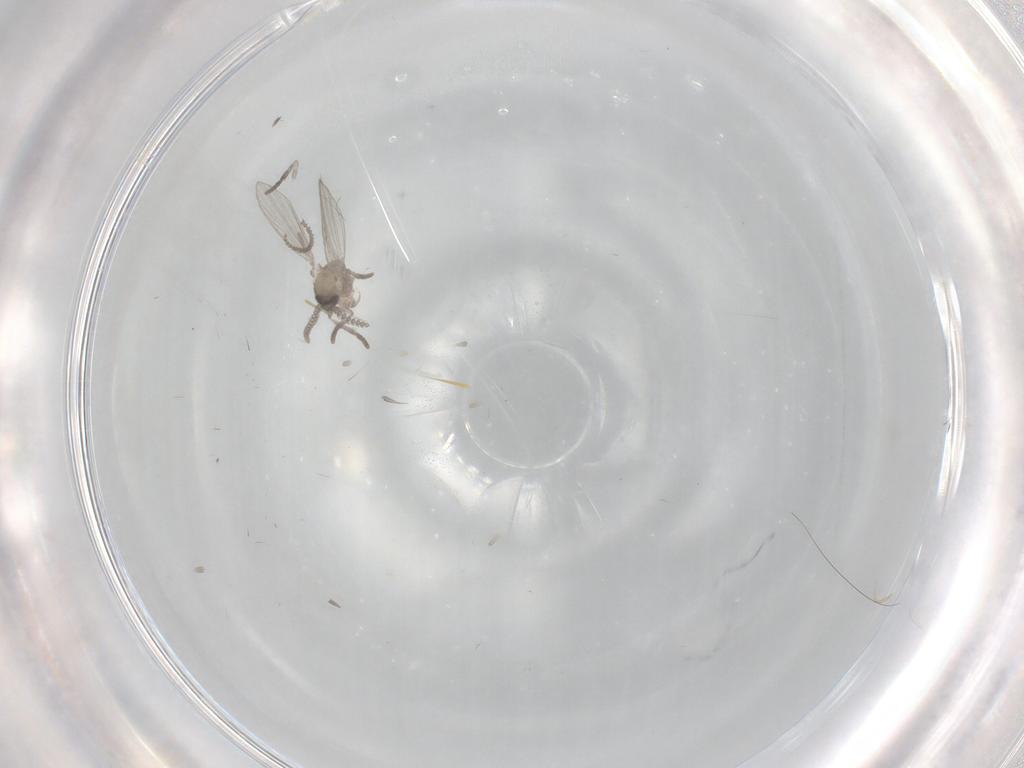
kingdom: Animalia
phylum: Arthropoda
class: Insecta
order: Diptera
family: Psychodidae
